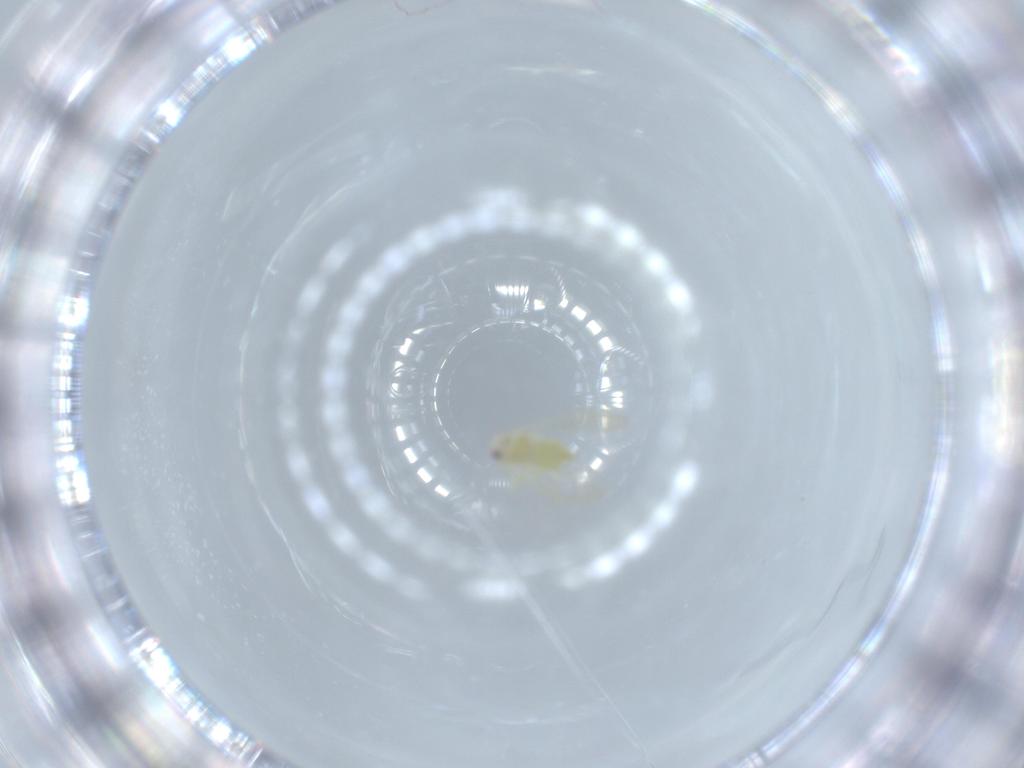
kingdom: Animalia
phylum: Arthropoda
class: Insecta
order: Hemiptera
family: Aleyrodidae
